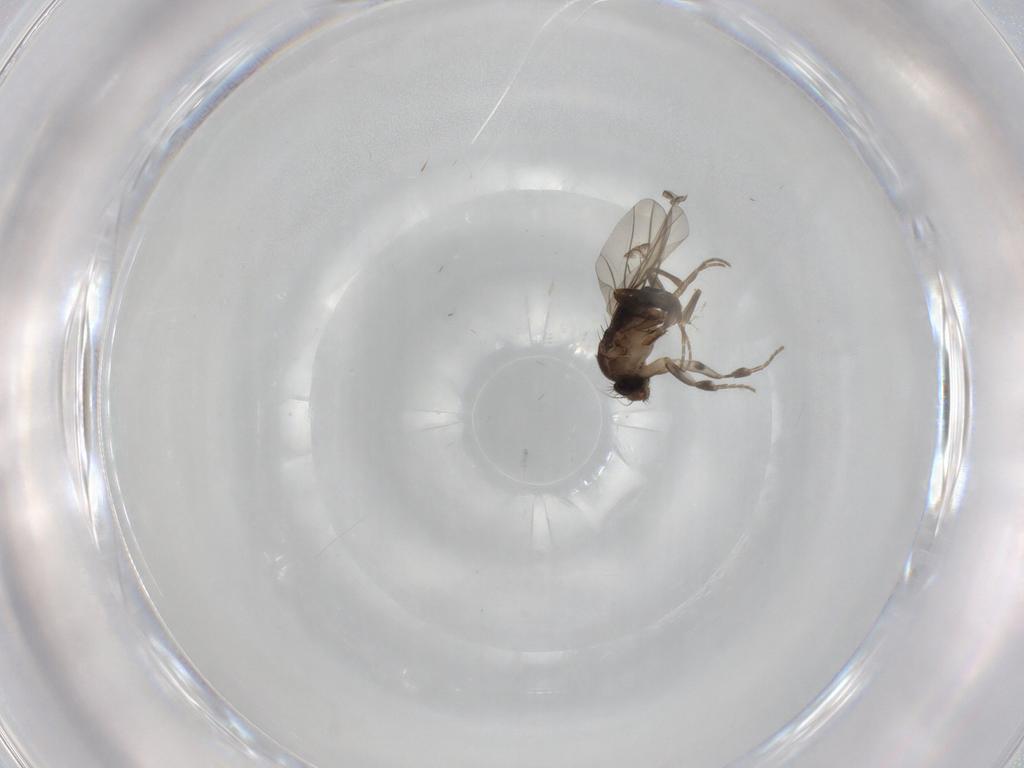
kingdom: Animalia
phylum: Arthropoda
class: Insecta
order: Diptera
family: Phoridae
